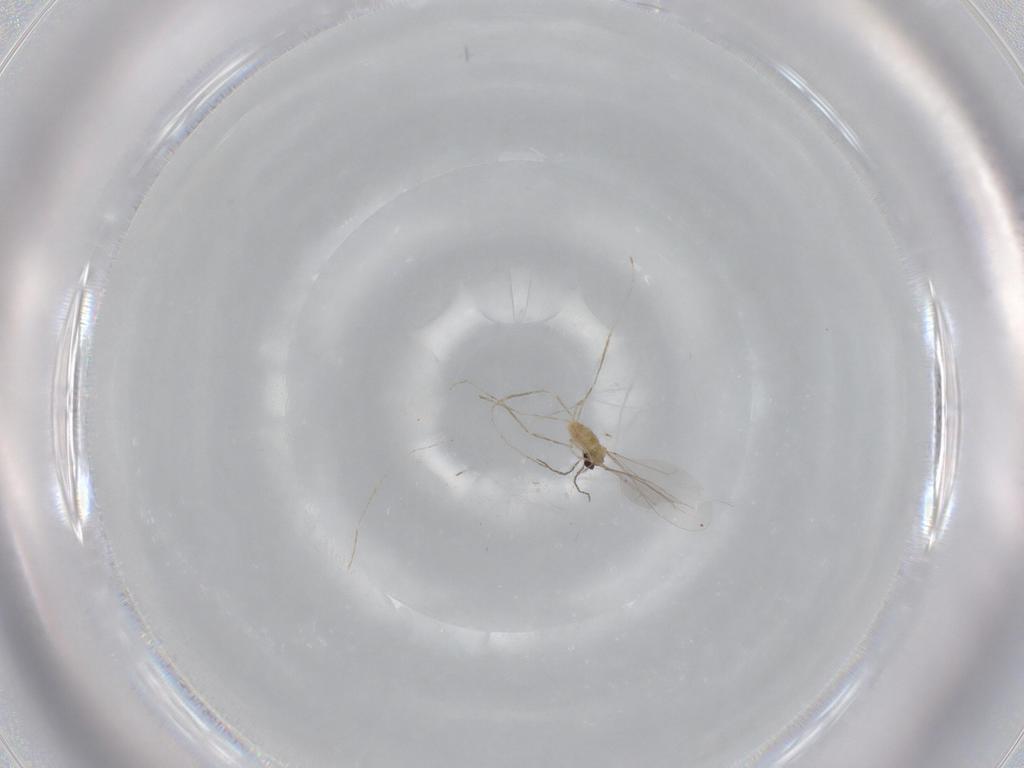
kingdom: Animalia
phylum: Arthropoda
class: Insecta
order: Diptera
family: Cecidomyiidae
